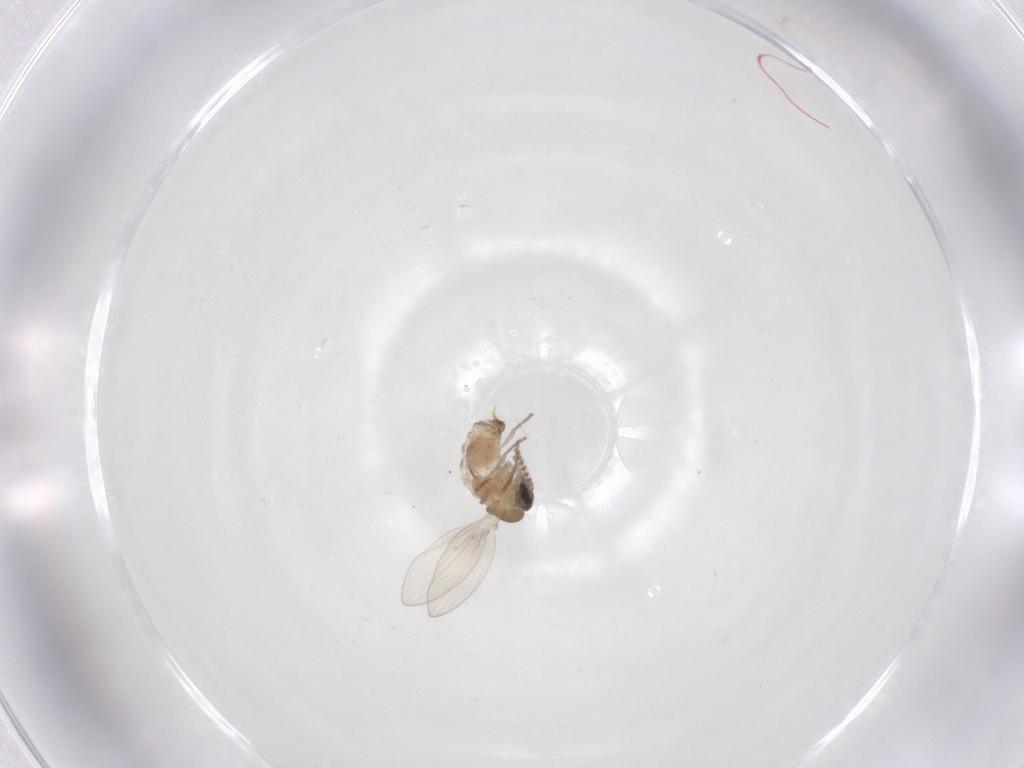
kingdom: Animalia
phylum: Arthropoda
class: Insecta
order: Diptera
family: Psychodidae
